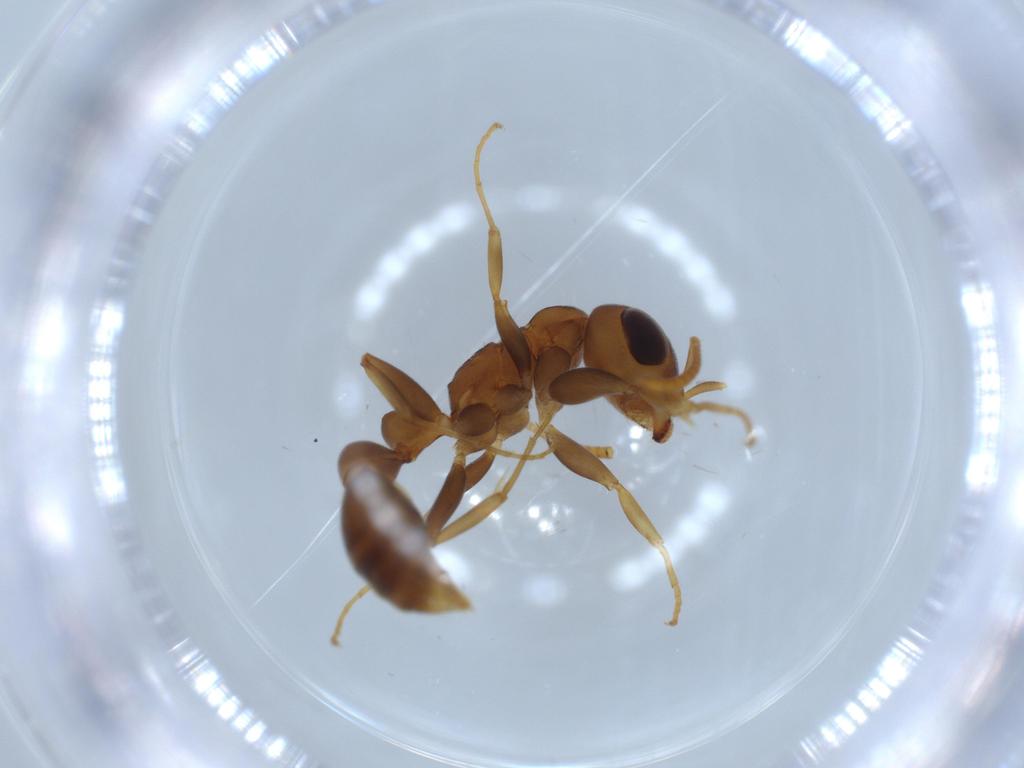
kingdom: Animalia
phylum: Arthropoda
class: Insecta
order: Hymenoptera
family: Formicidae
